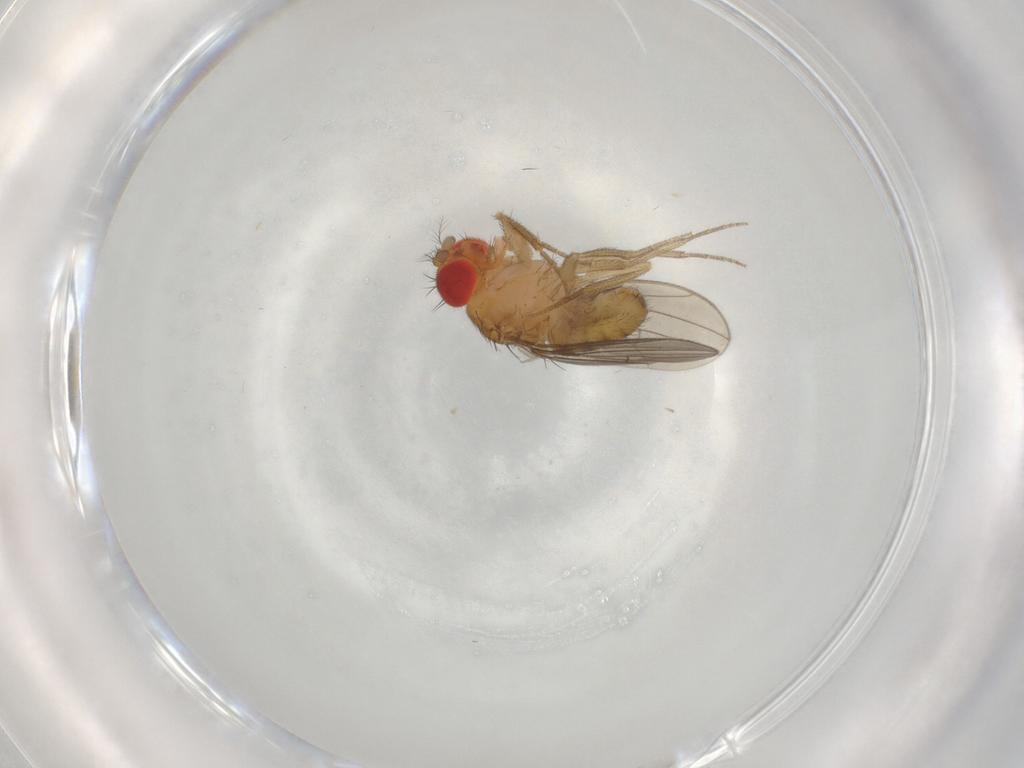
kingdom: Animalia
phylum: Arthropoda
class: Insecta
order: Diptera
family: Drosophilidae
